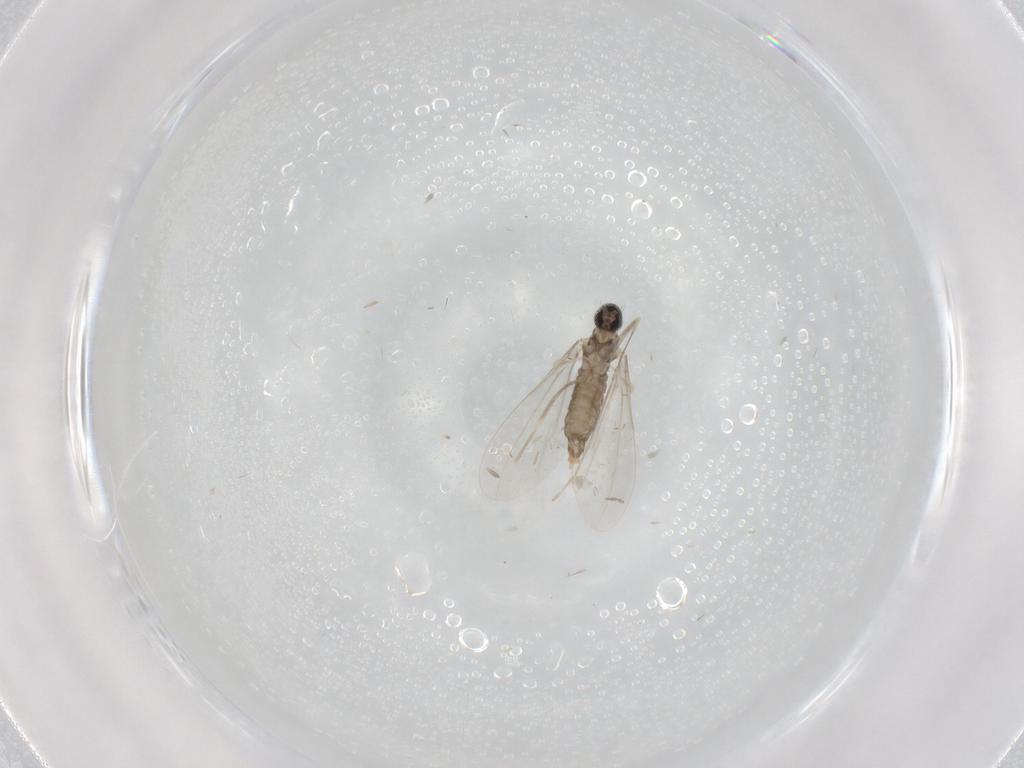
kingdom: Animalia
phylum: Arthropoda
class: Insecta
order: Diptera
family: Cecidomyiidae
